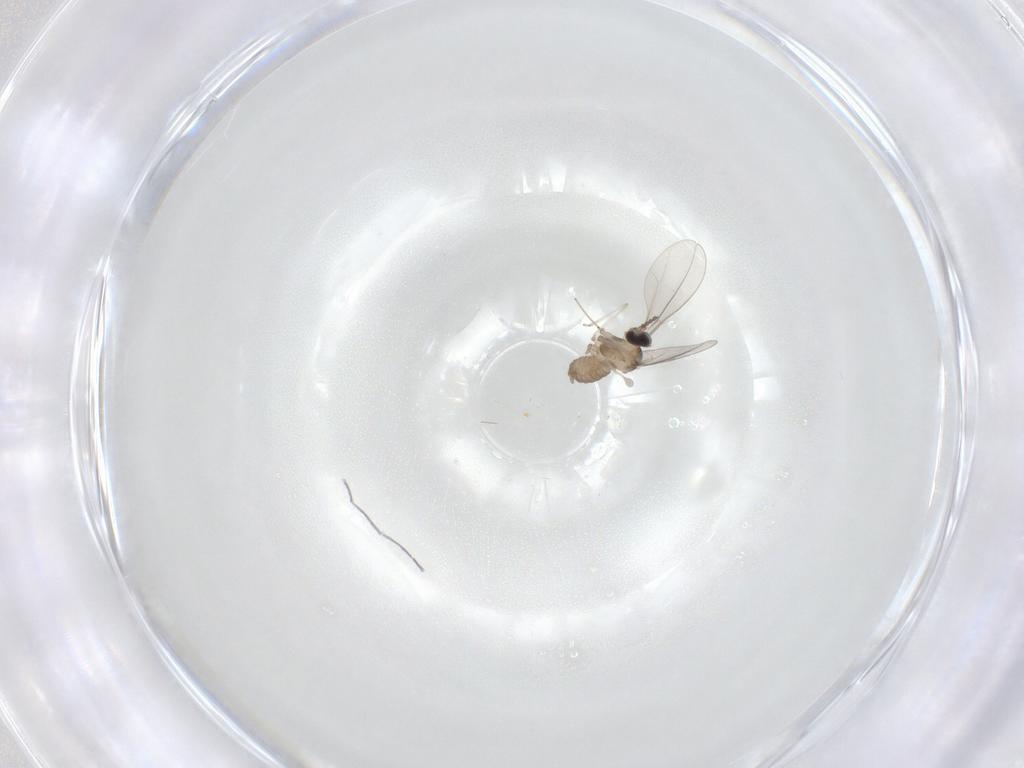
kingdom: Animalia
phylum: Arthropoda
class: Insecta
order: Diptera
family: Cecidomyiidae
